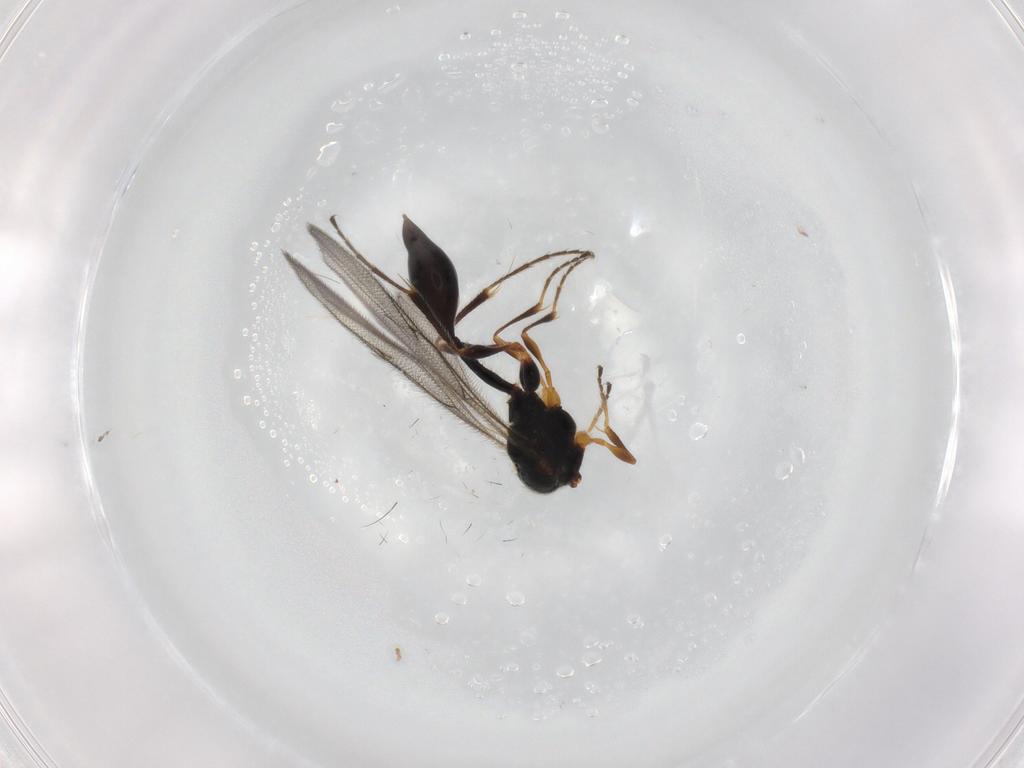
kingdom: Animalia
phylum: Arthropoda
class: Insecta
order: Hymenoptera
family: Diapriidae
